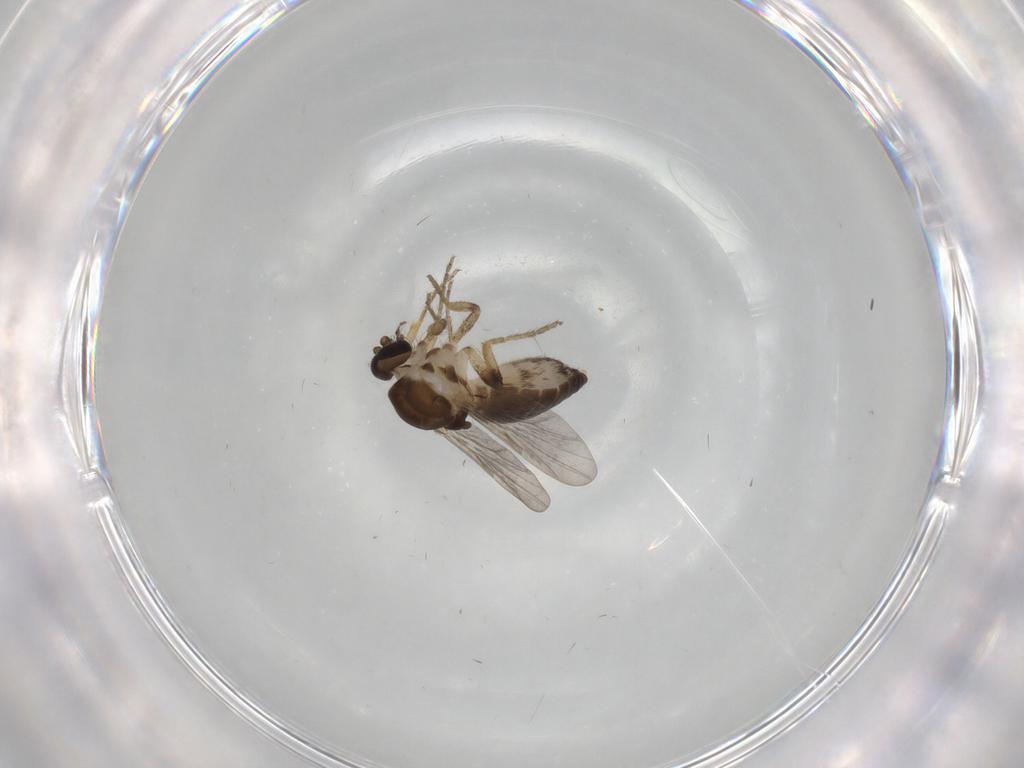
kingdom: Animalia
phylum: Arthropoda
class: Insecta
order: Diptera
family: Ceratopogonidae
